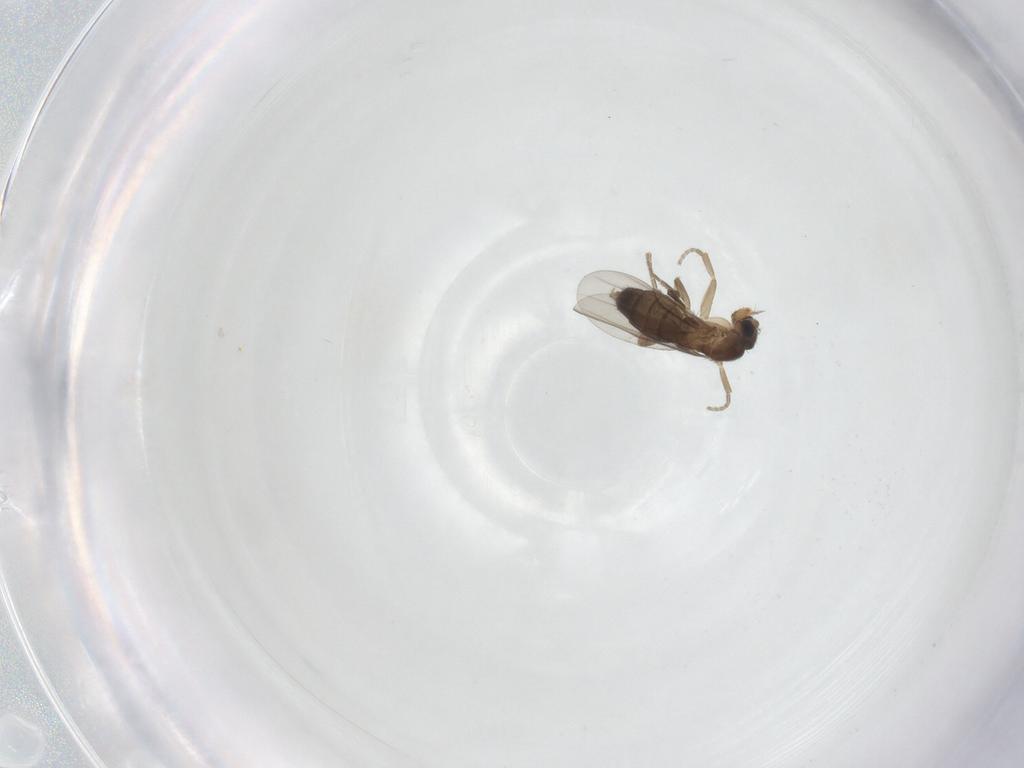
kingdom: Animalia
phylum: Arthropoda
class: Insecta
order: Diptera
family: Phoridae
